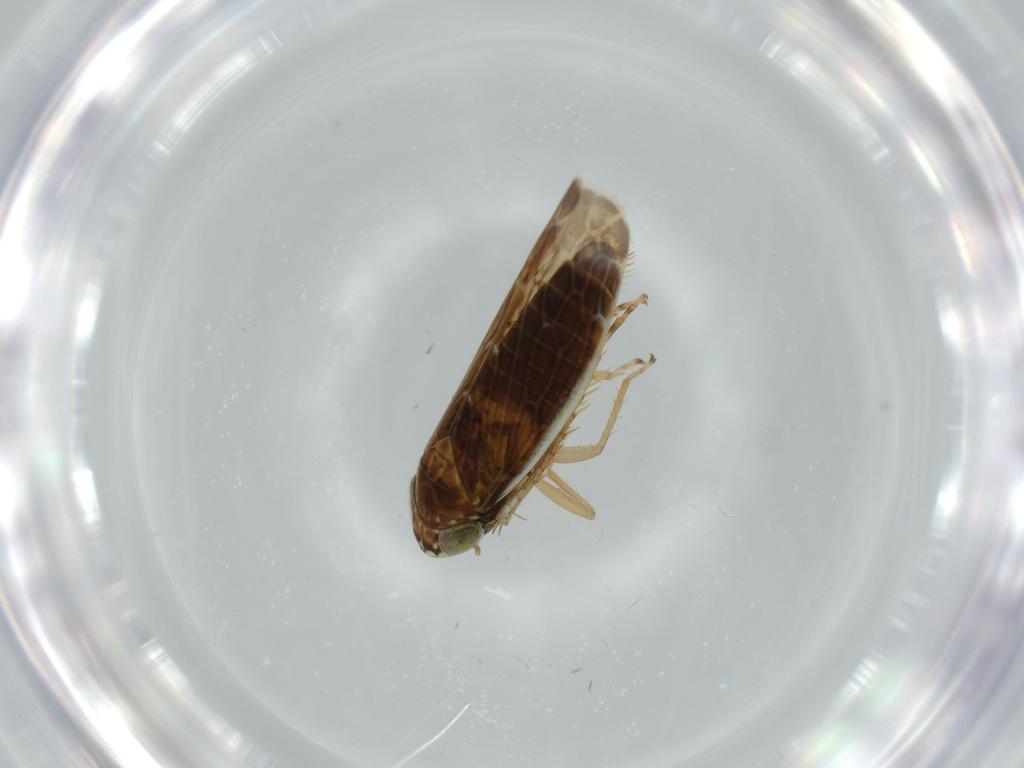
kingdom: Animalia
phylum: Arthropoda
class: Insecta
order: Hemiptera
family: Cicadellidae
